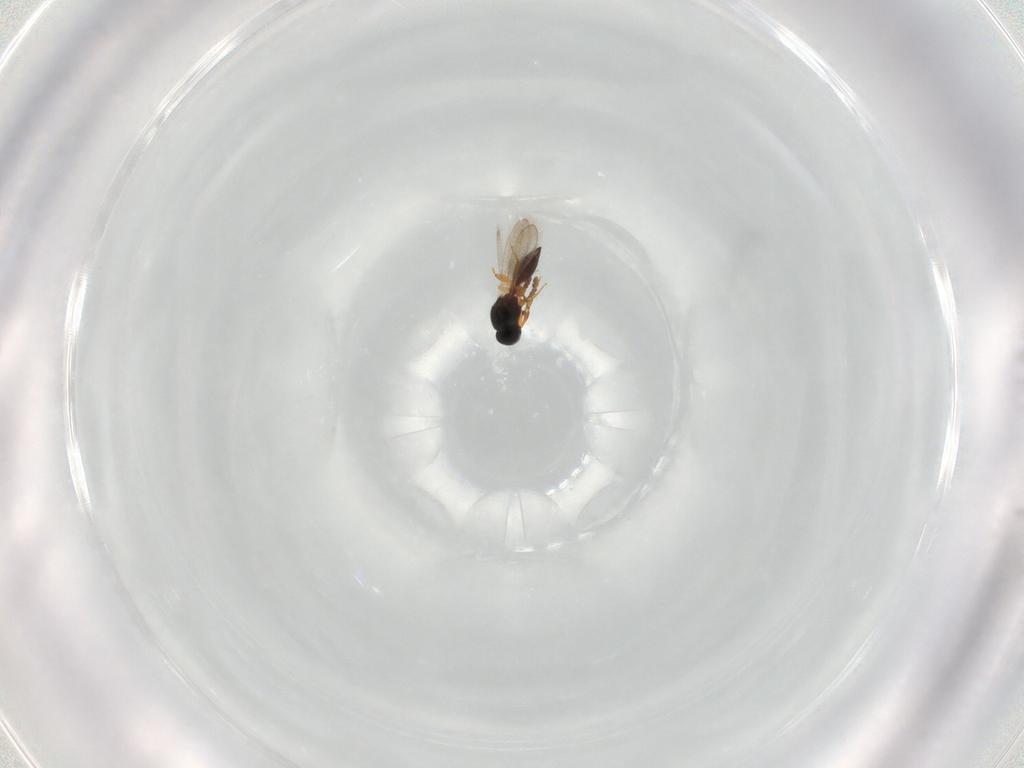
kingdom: Animalia
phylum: Arthropoda
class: Insecta
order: Hymenoptera
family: Platygastridae
